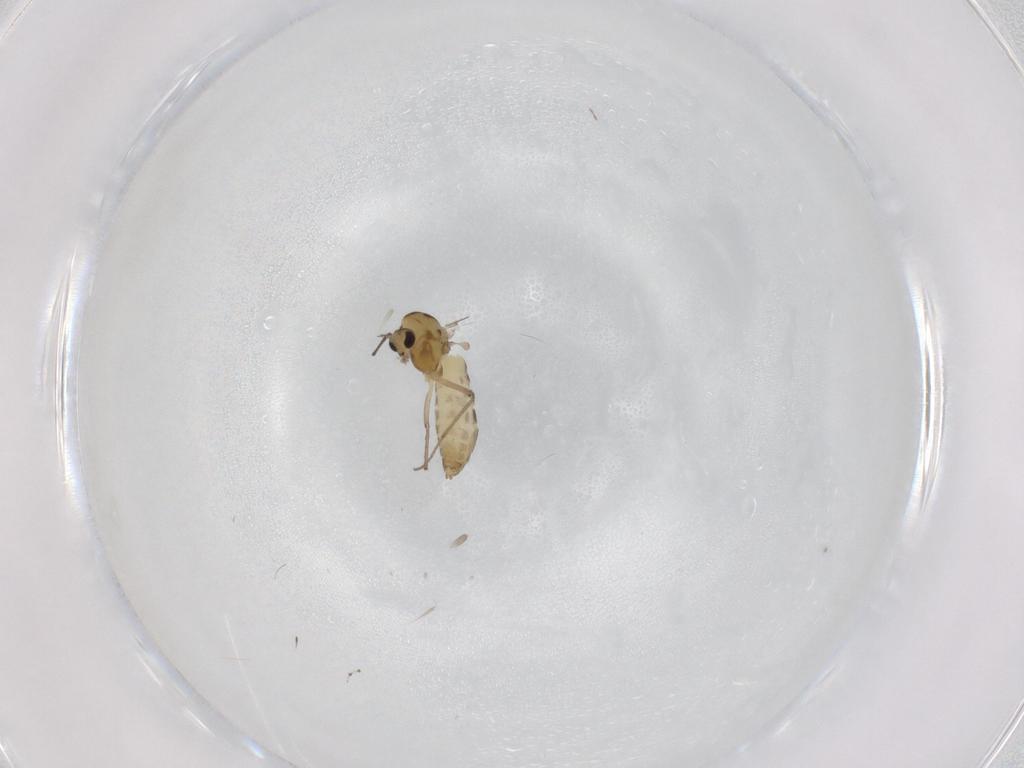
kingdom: Animalia
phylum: Arthropoda
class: Insecta
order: Diptera
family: Chironomidae
